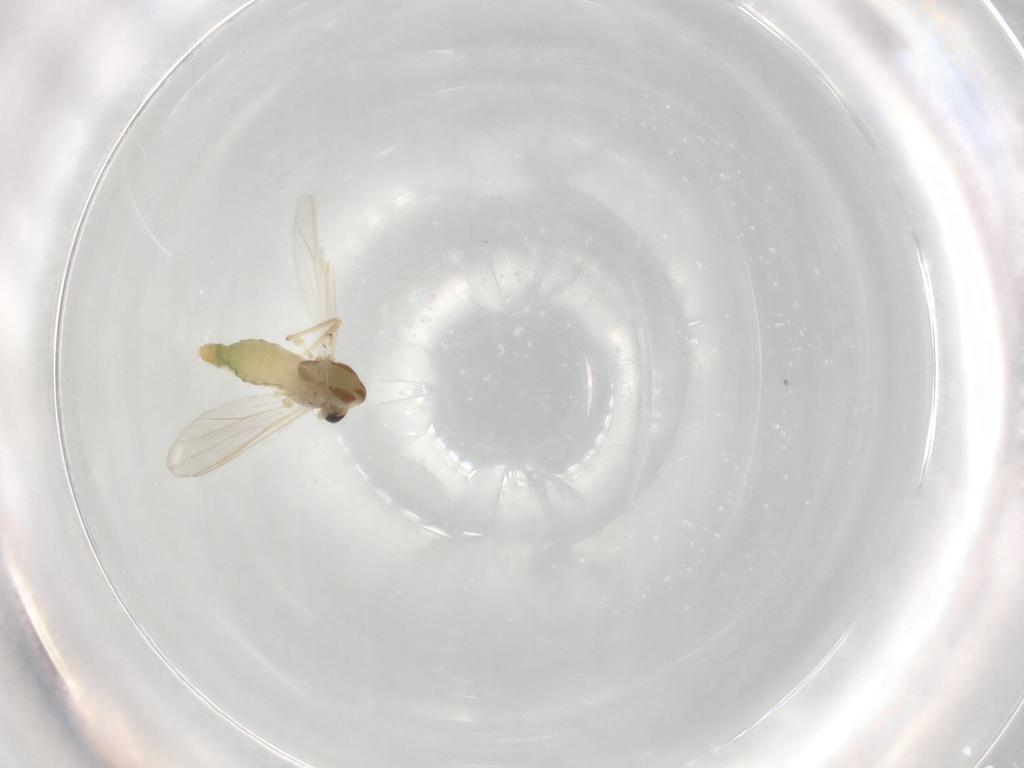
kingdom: Animalia
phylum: Arthropoda
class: Insecta
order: Diptera
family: Chironomidae
